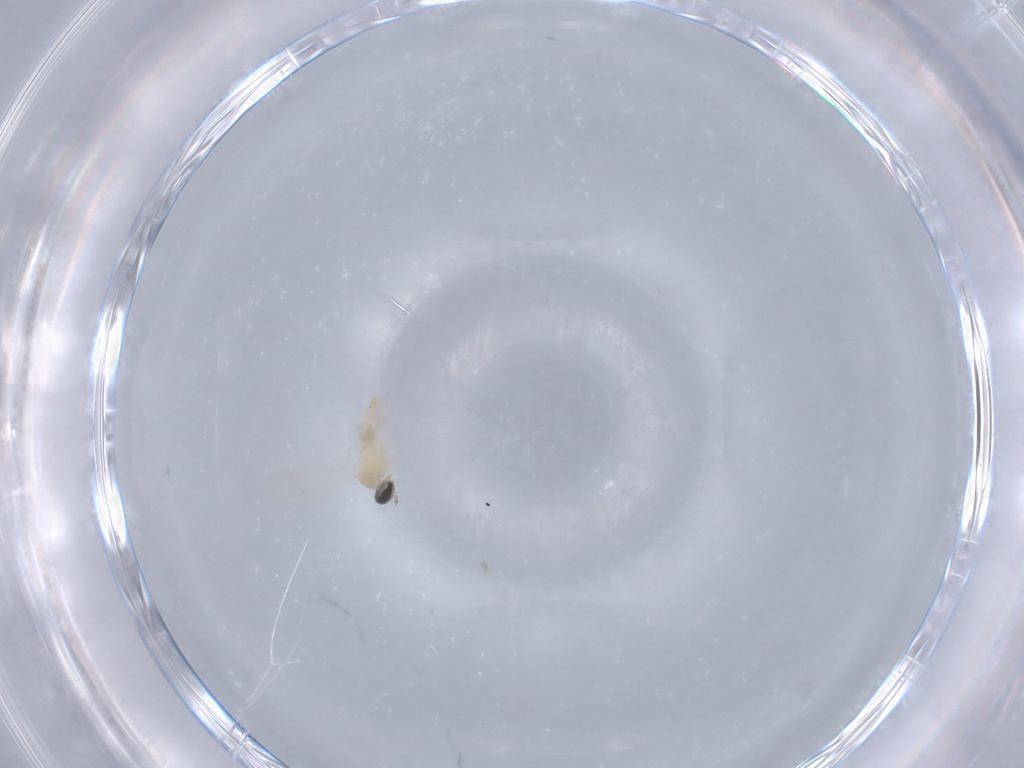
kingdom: Animalia
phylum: Arthropoda
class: Insecta
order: Diptera
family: Cecidomyiidae
